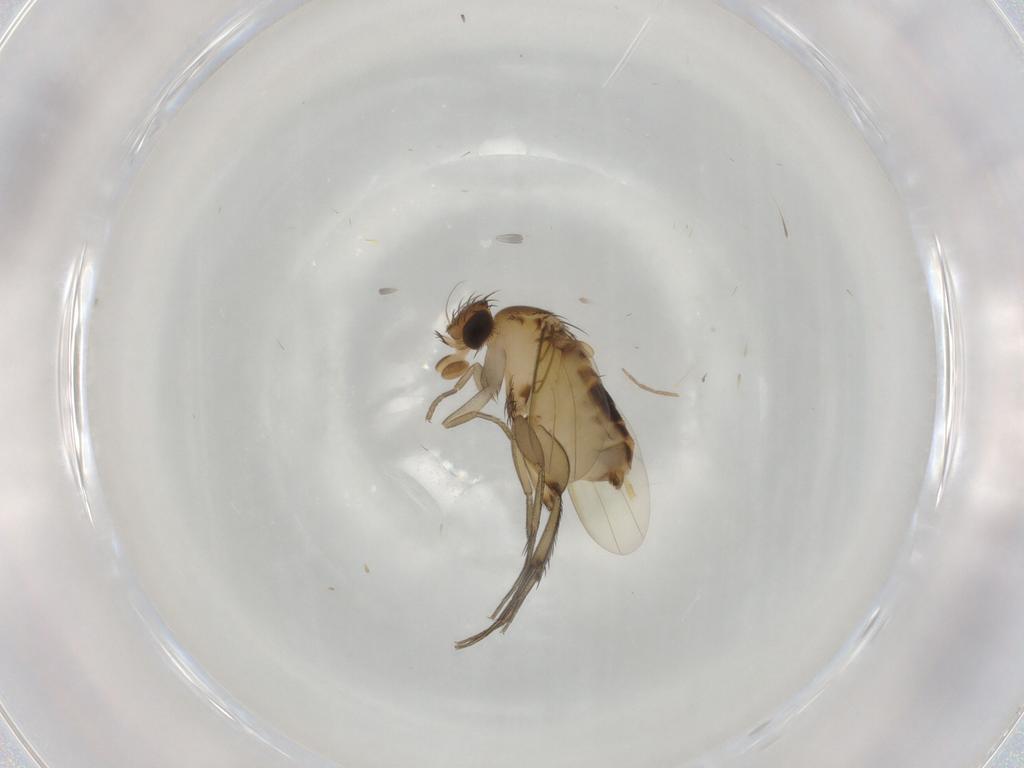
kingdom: Animalia
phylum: Arthropoda
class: Insecta
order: Diptera
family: Phoridae
